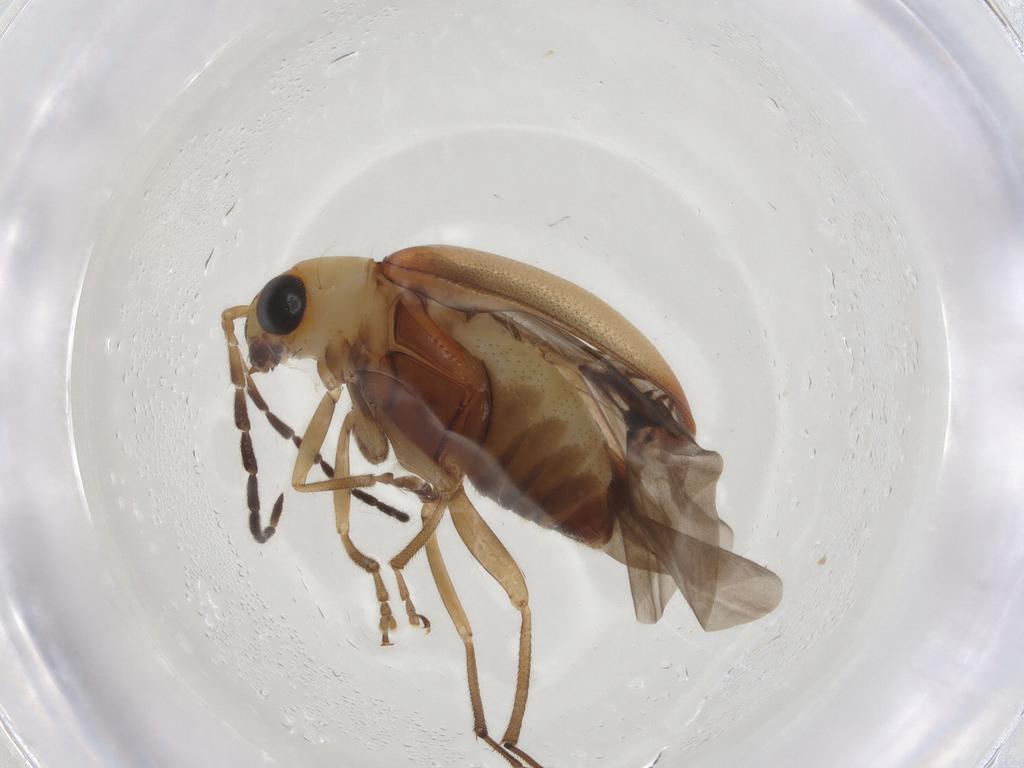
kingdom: Animalia
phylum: Arthropoda
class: Insecta
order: Coleoptera
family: Chrysomelidae
